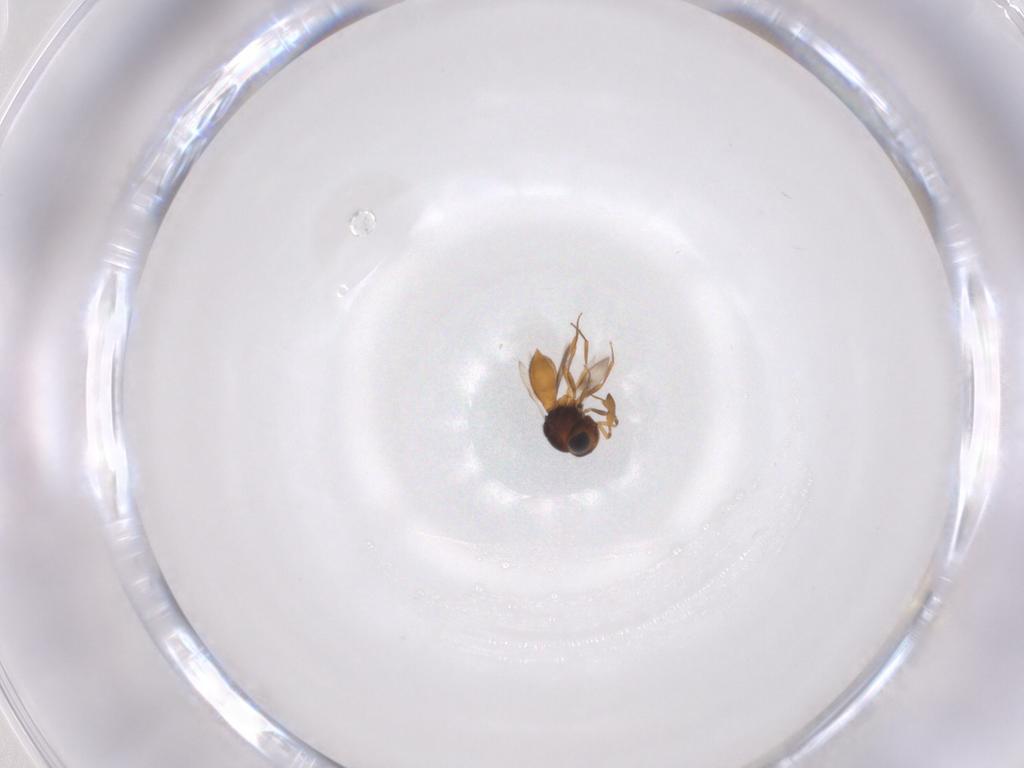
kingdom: Animalia
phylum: Arthropoda
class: Insecta
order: Hymenoptera
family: Scelionidae
